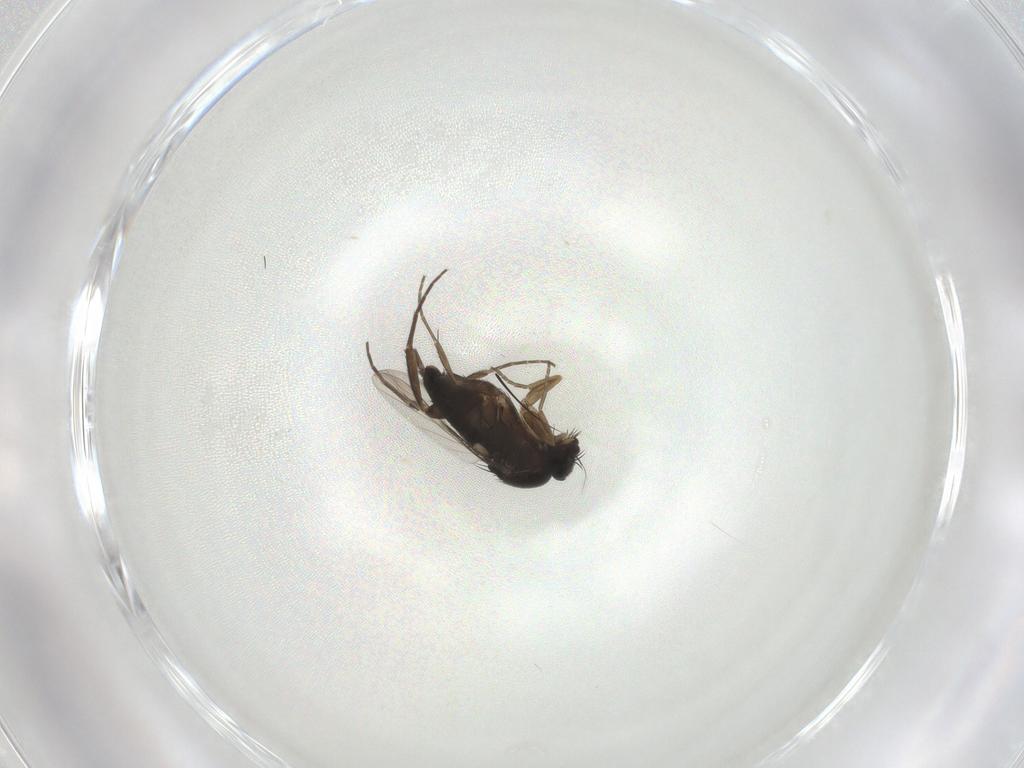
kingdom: Animalia
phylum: Arthropoda
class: Insecta
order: Diptera
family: Phoridae
